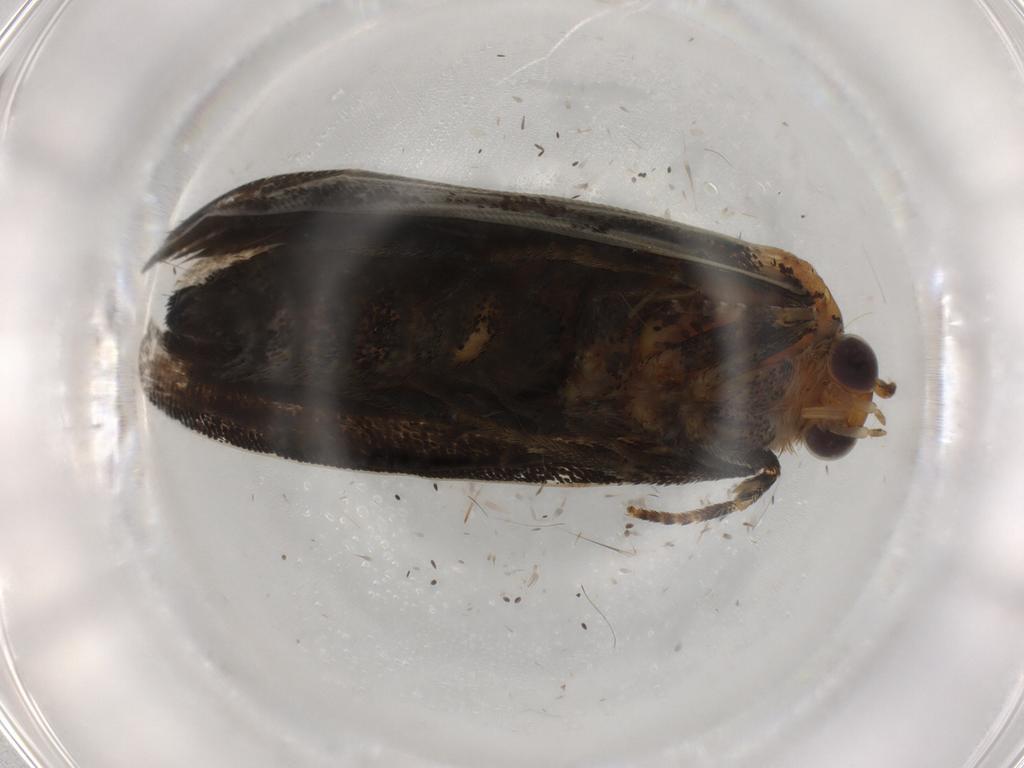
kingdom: Animalia
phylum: Arthropoda
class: Insecta
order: Lepidoptera
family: Tortricidae
